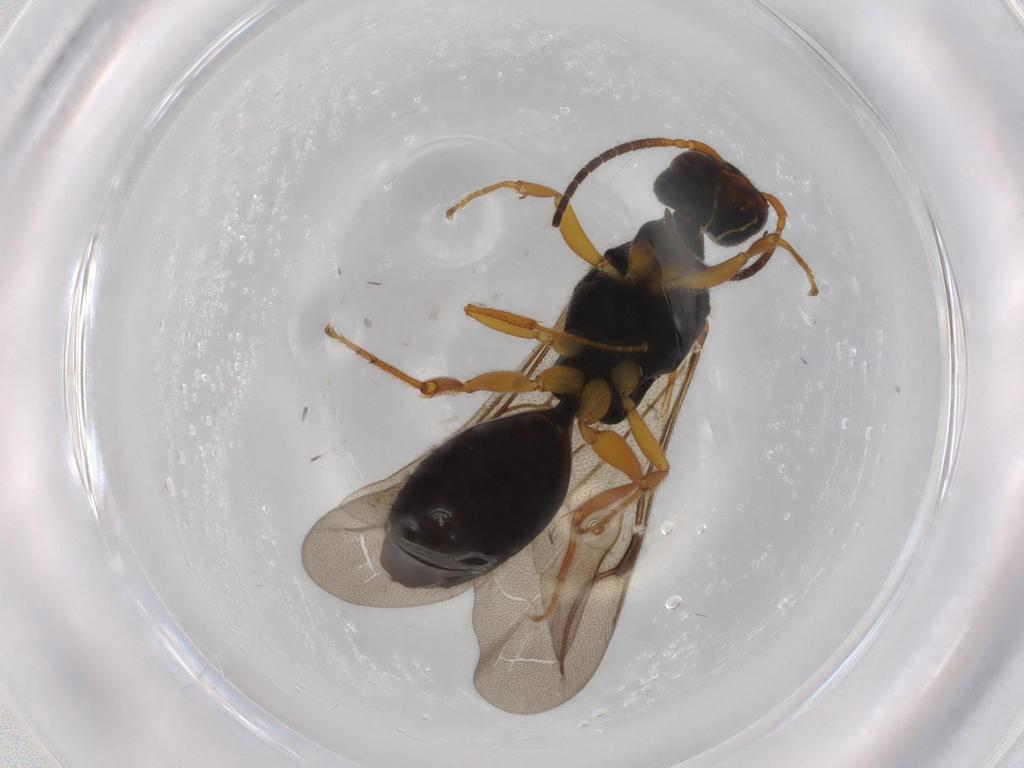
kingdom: Animalia
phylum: Arthropoda
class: Insecta
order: Hymenoptera
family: Bethylidae
